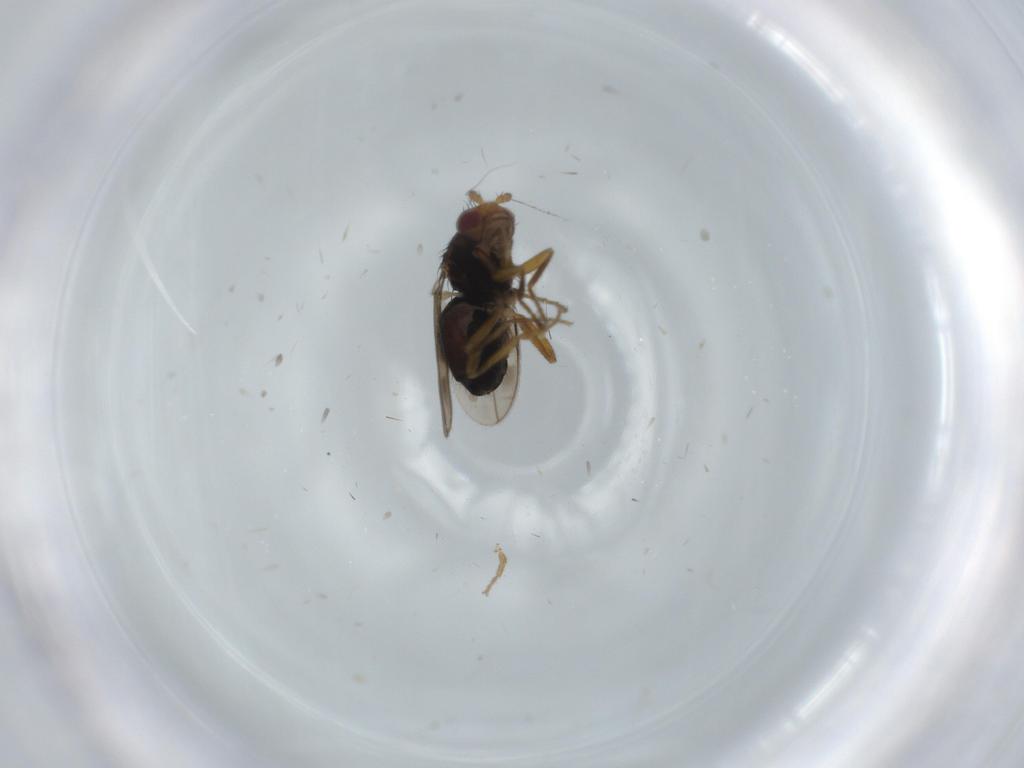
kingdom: Animalia
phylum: Arthropoda
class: Insecta
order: Diptera
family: Sphaeroceridae
